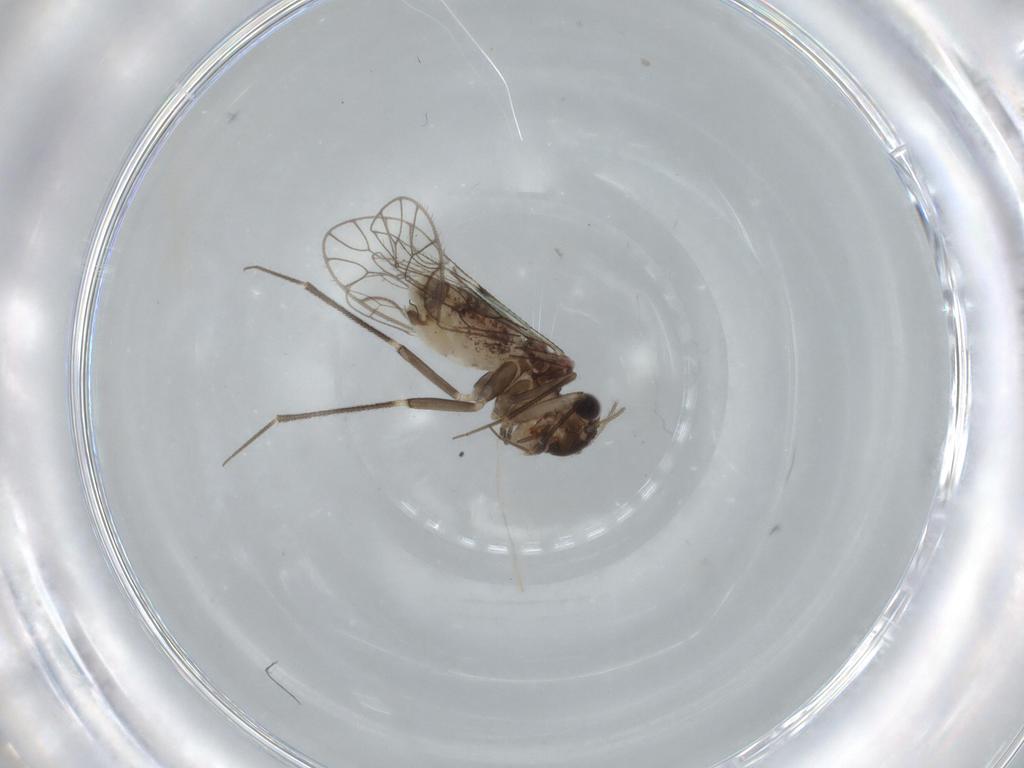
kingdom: Animalia
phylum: Arthropoda
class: Insecta
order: Psocodea
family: Epipsocidae
